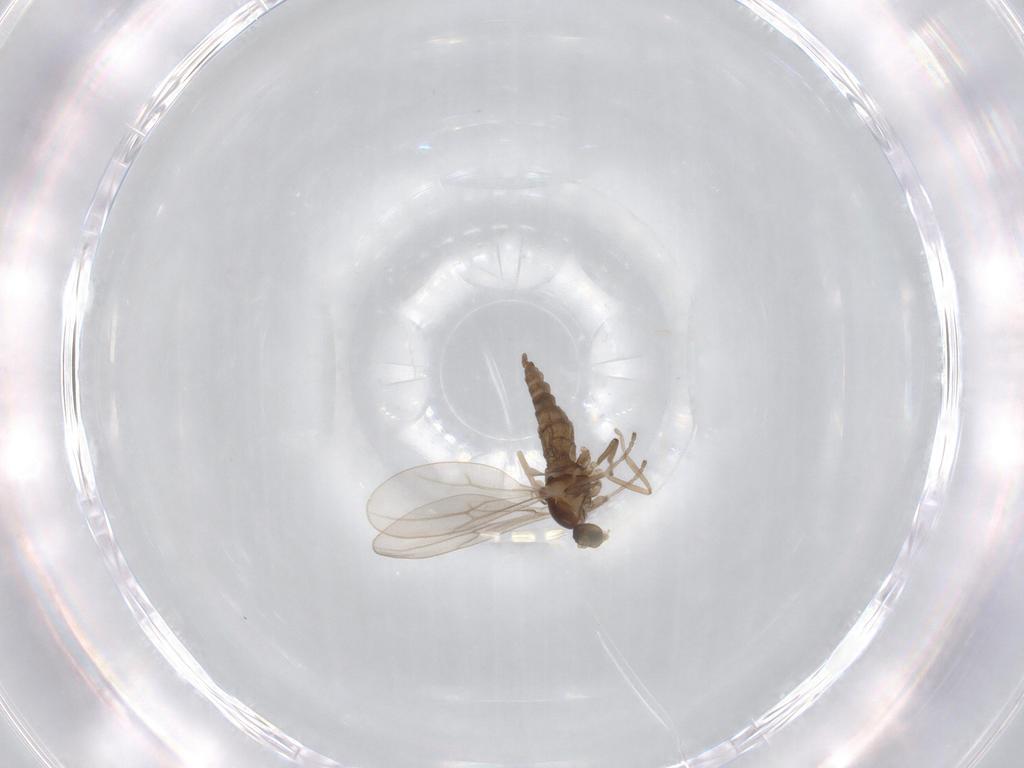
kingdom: Animalia
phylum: Arthropoda
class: Insecta
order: Diptera
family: Cecidomyiidae
